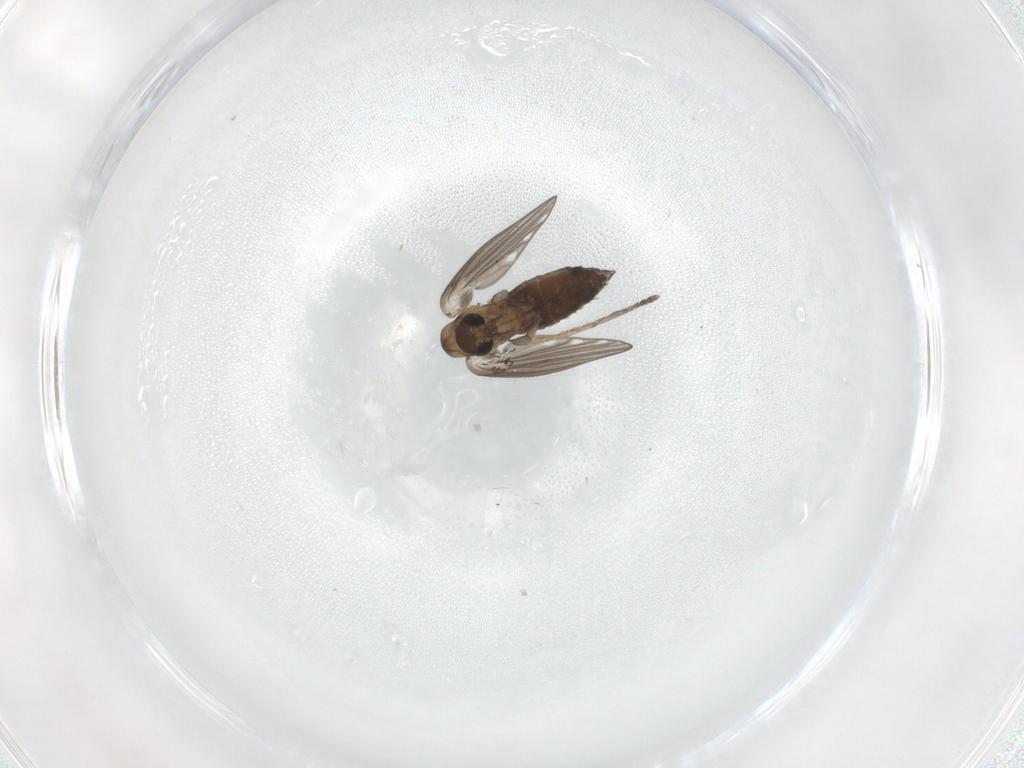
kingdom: Animalia
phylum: Arthropoda
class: Insecta
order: Diptera
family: Psychodidae
